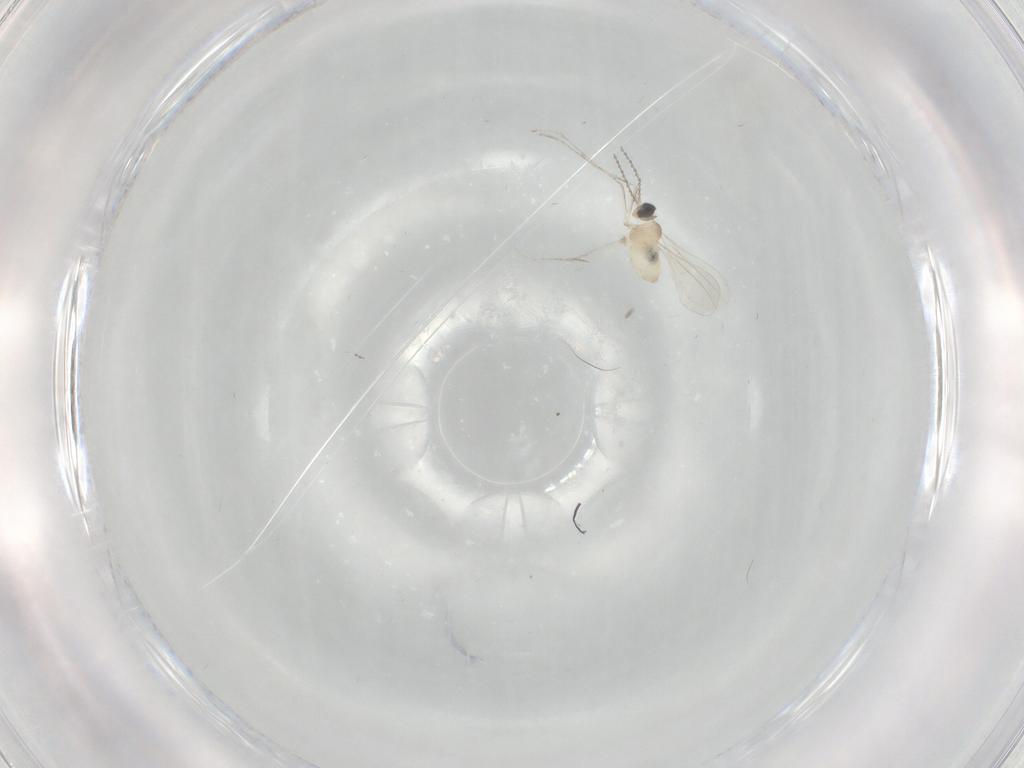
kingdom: Animalia
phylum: Arthropoda
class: Insecta
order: Diptera
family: Cecidomyiidae
